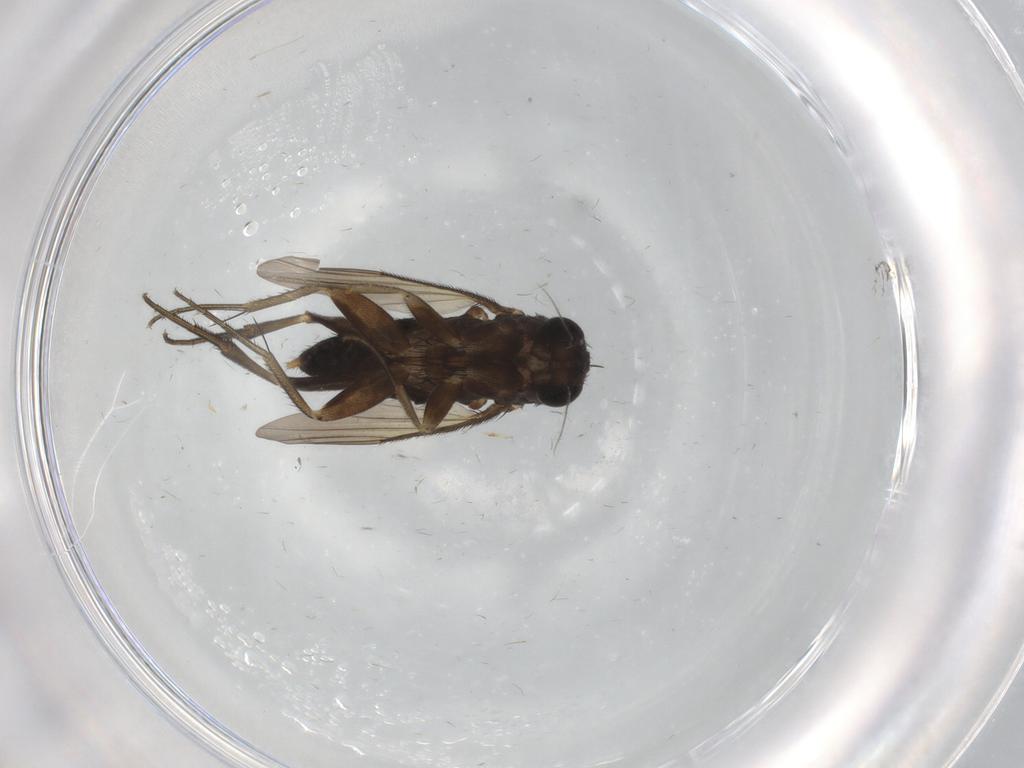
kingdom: Animalia
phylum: Arthropoda
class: Insecta
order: Diptera
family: Phoridae
